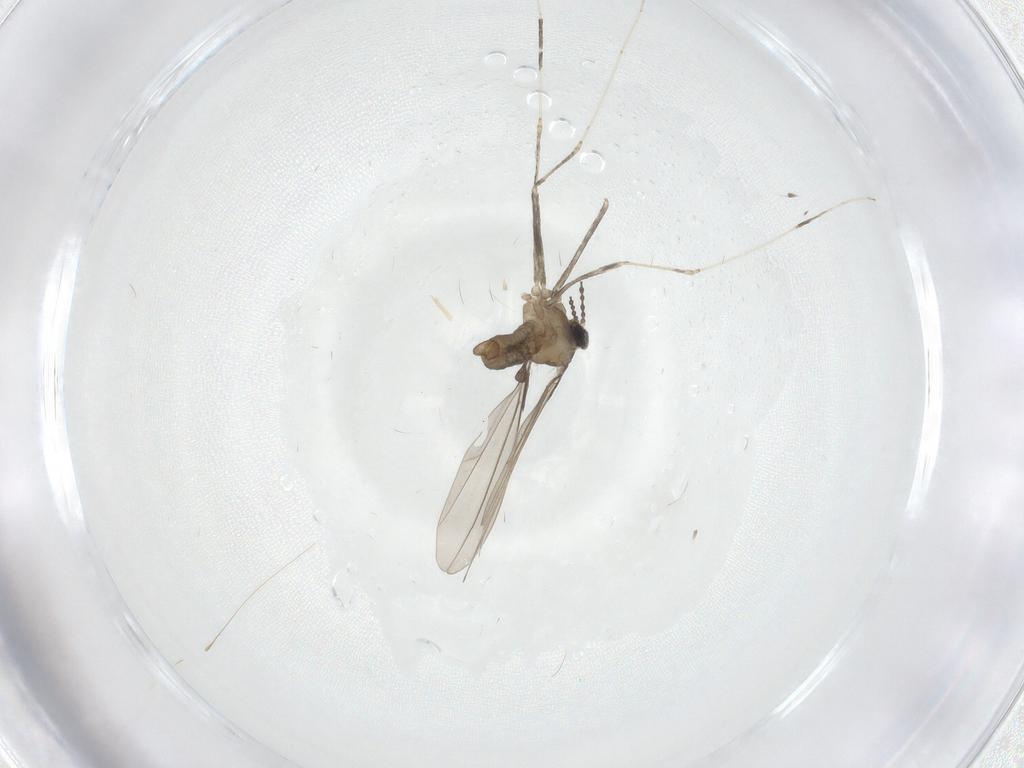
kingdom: Animalia
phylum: Arthropoda
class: Insecta
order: Diptera
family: Cecidomyiidae
